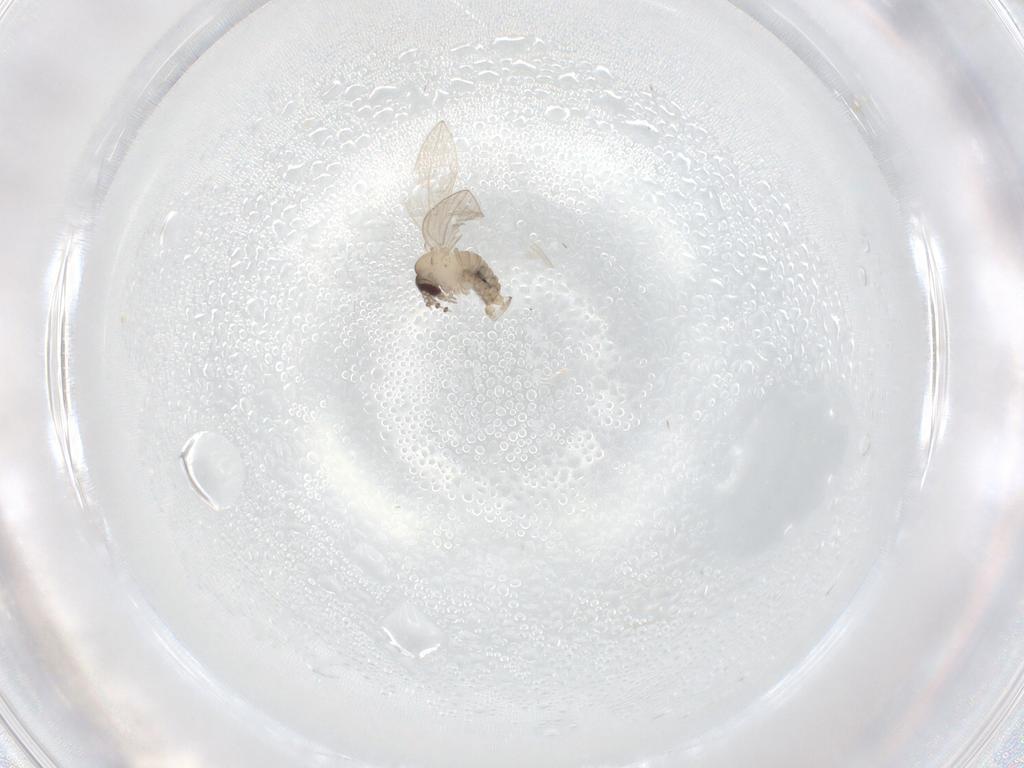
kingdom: Animalia
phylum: Arthropoda
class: Insecta
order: Diptera
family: Psychodidae
